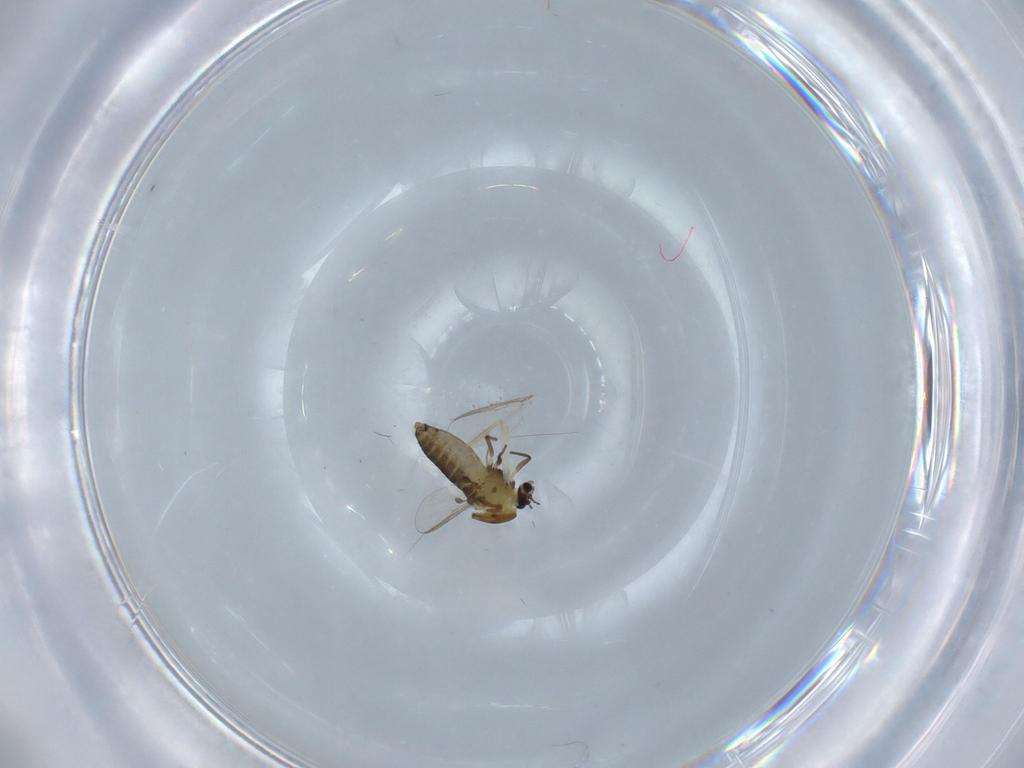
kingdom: Animalia
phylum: Arthropoda
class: Insecta
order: Diptera
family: Chironomidae
